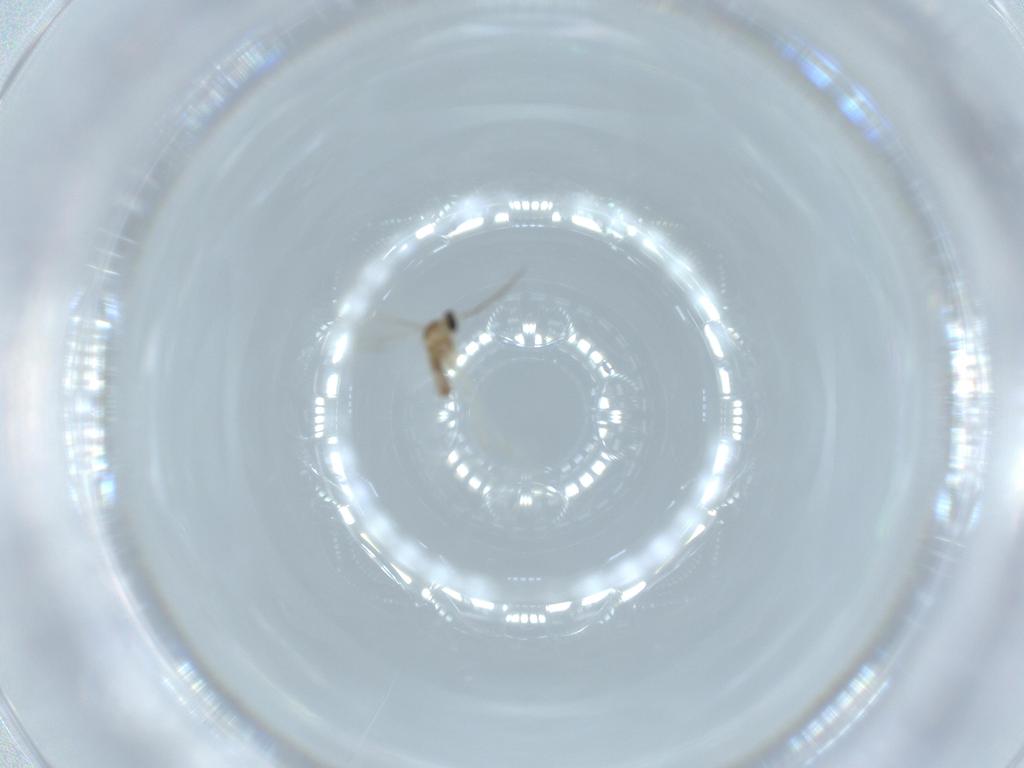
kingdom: Animalia
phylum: Arthropoda
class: Insecta
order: Diptera
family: Cecidomyiidae
